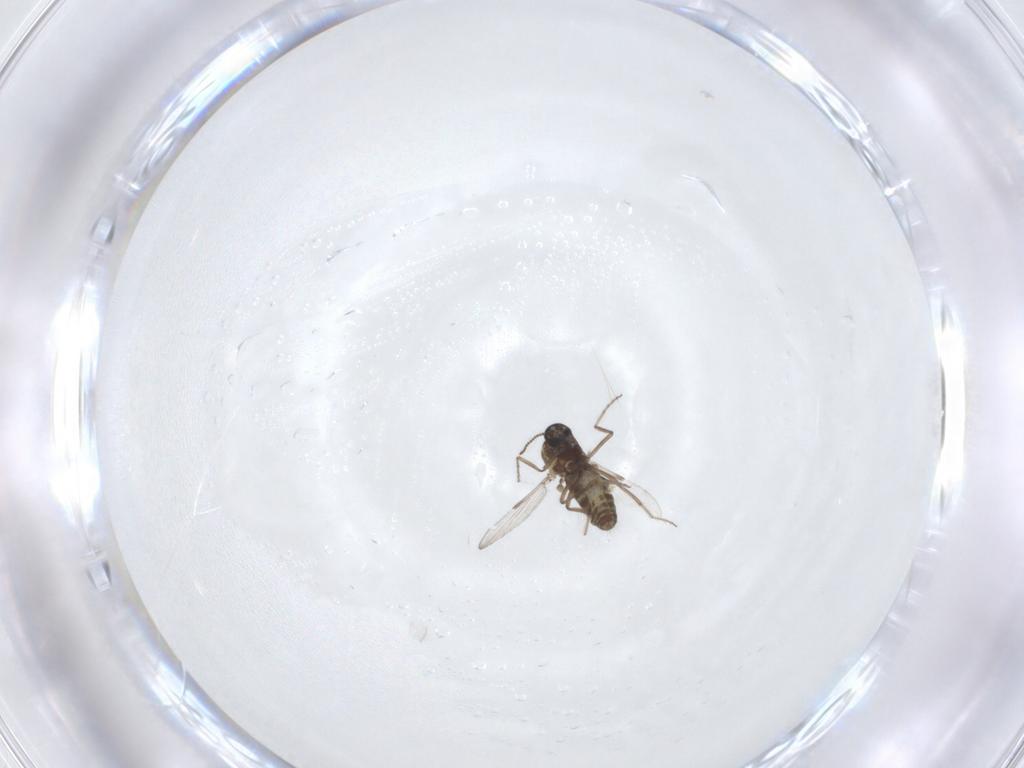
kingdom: Animalia
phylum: Arthropoda
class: Insecta
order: Diptera
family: Ceratopogonidae
